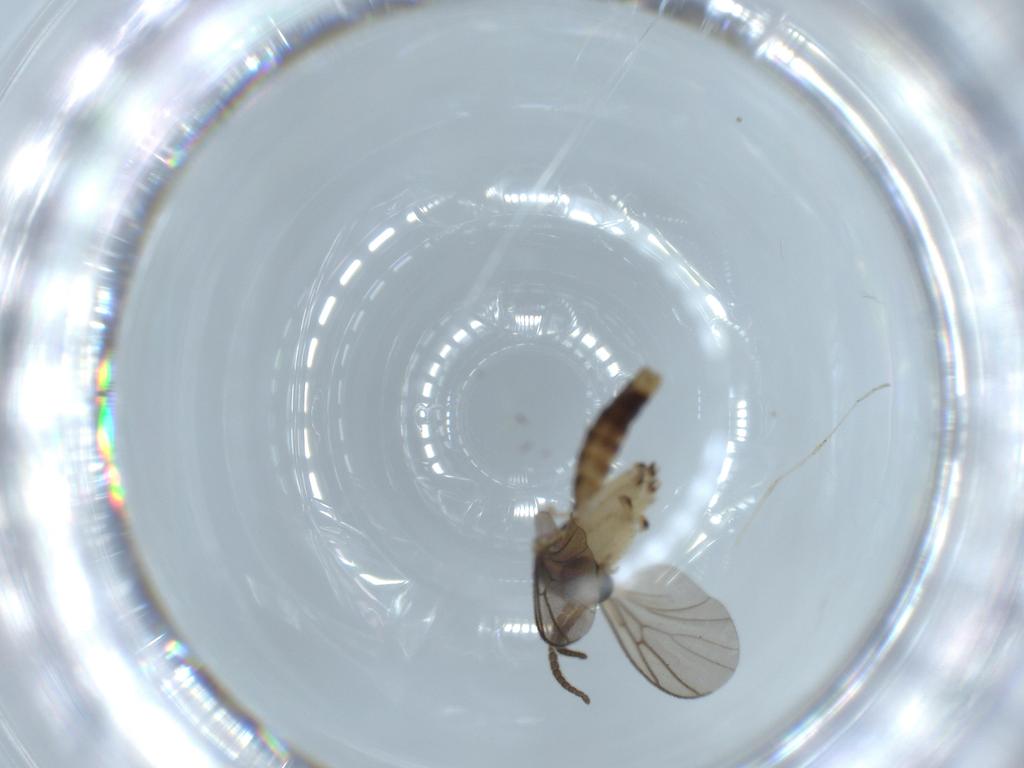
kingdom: Animalia
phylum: Arthropoda
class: Insecta
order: Diptera
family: Mycetophilidae
